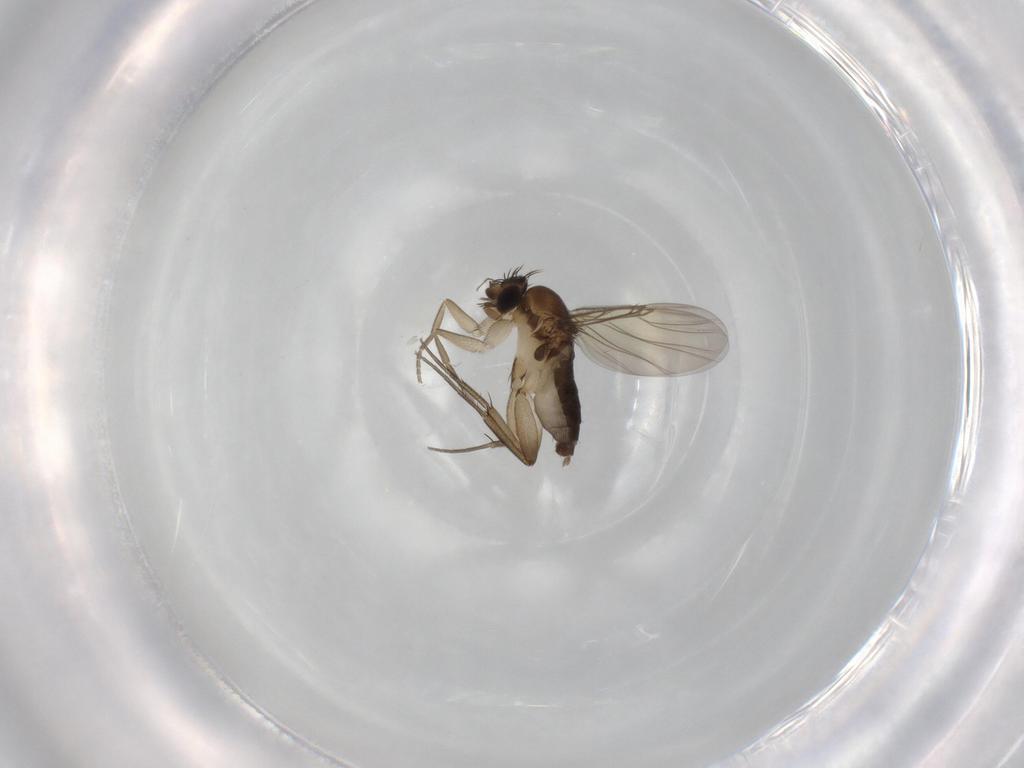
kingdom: Animalia
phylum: Arthropoda
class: Insecta
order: Diptera
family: Phoridae
